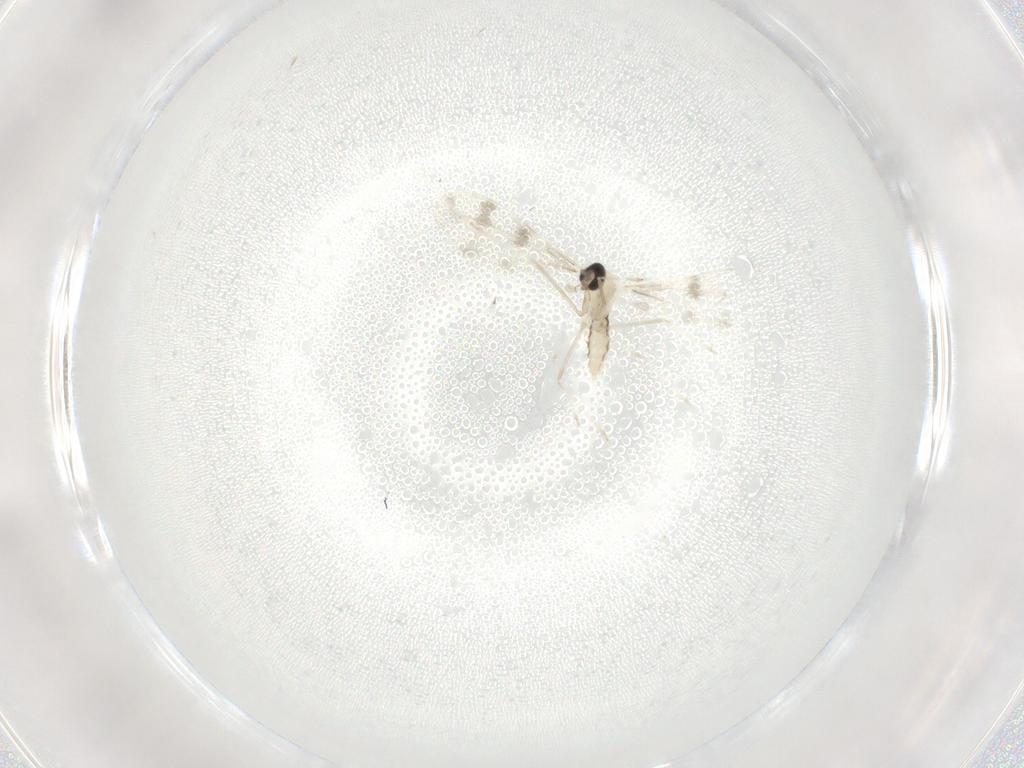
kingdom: Animalia
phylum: Arthropoda
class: Insecta
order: Diptera
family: Cecidomyiidae
